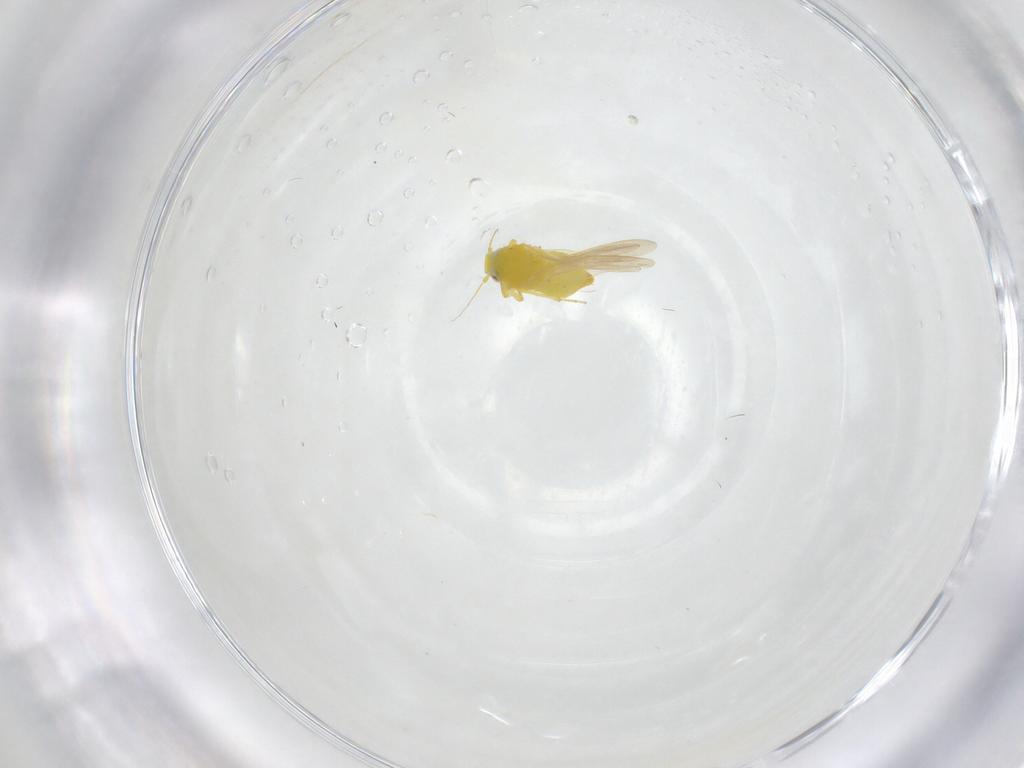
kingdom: Animalia
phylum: Arthropoda
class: Insecta
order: Hemiptera
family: Aleyrodidae
